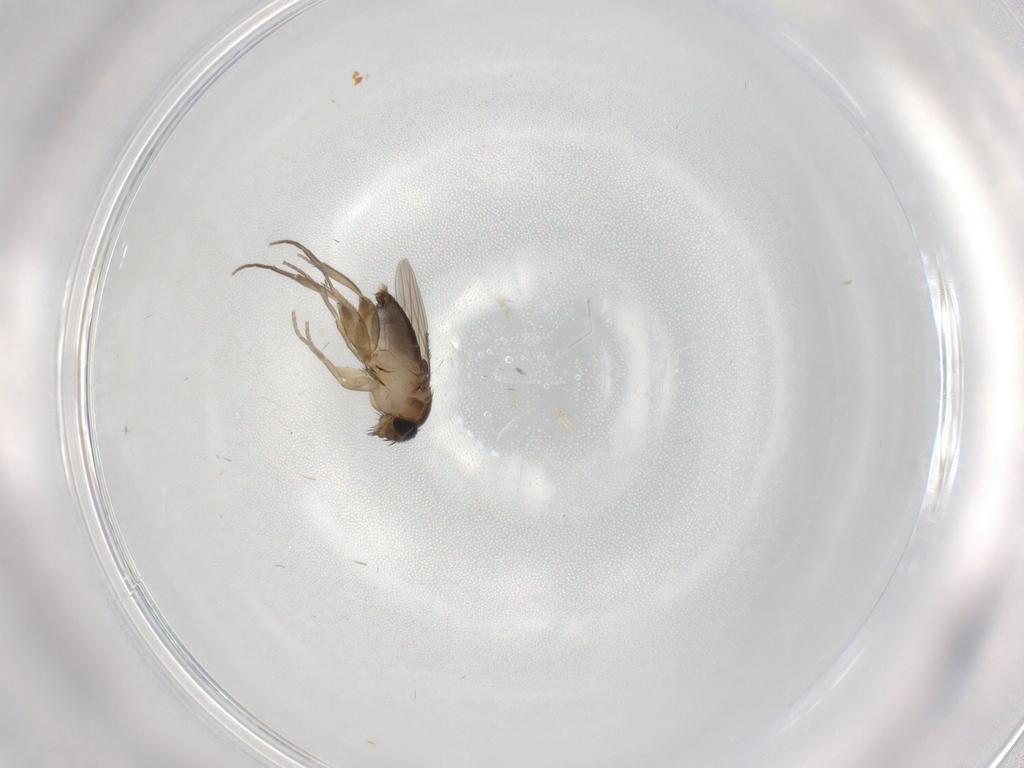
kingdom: Animalia
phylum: Arthropoda
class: Insecta
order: Diptera
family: Phoridae
